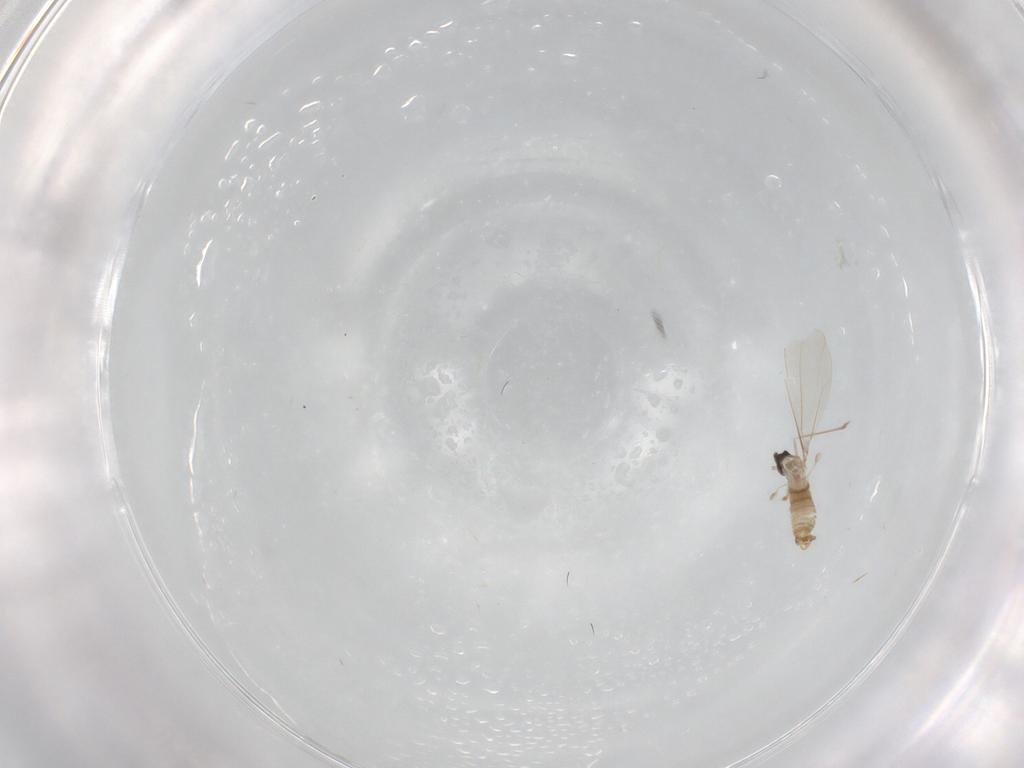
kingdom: Animalia
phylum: Arthropoda
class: Insecta
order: Diptera
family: Cecidomyiidae
